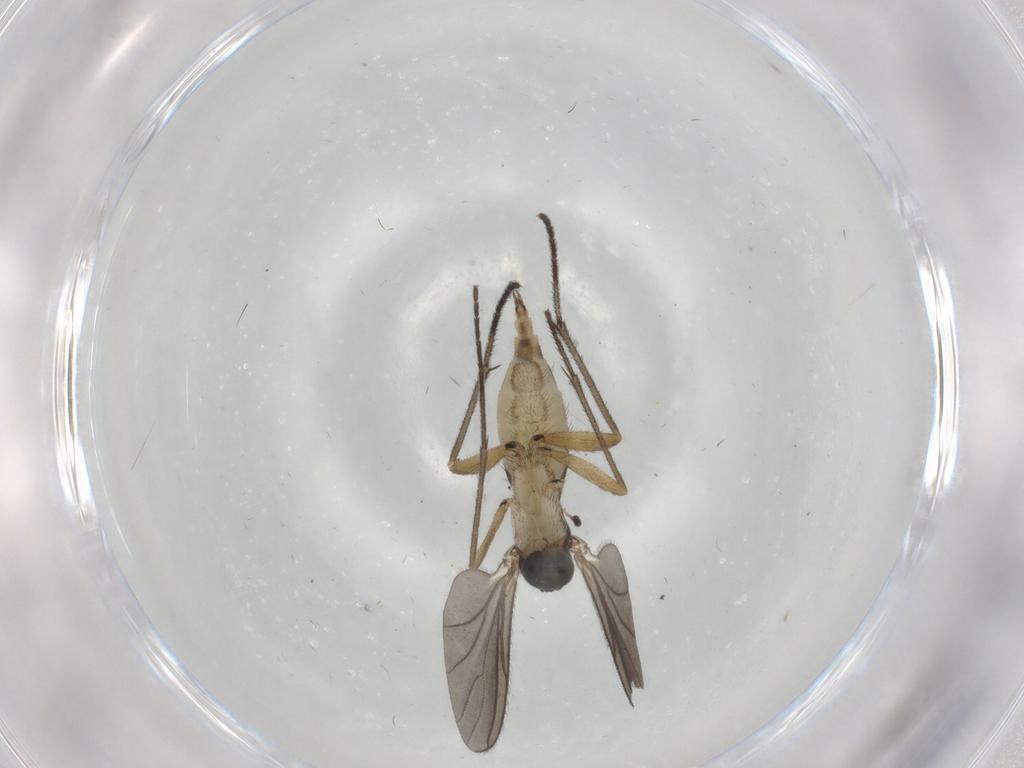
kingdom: Animalia
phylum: Arthropoda
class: Insecta
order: Diptera
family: Sciaridae
